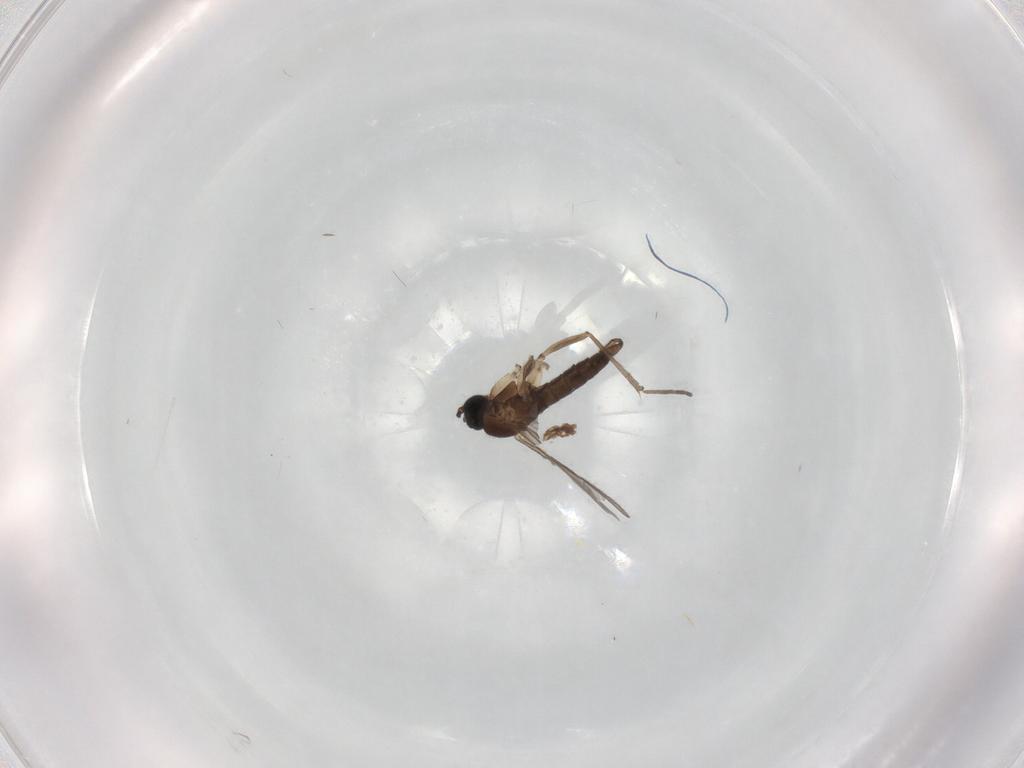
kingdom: Animalia
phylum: Arthropoda
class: Insecta
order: Diptera
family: Sciaridae
